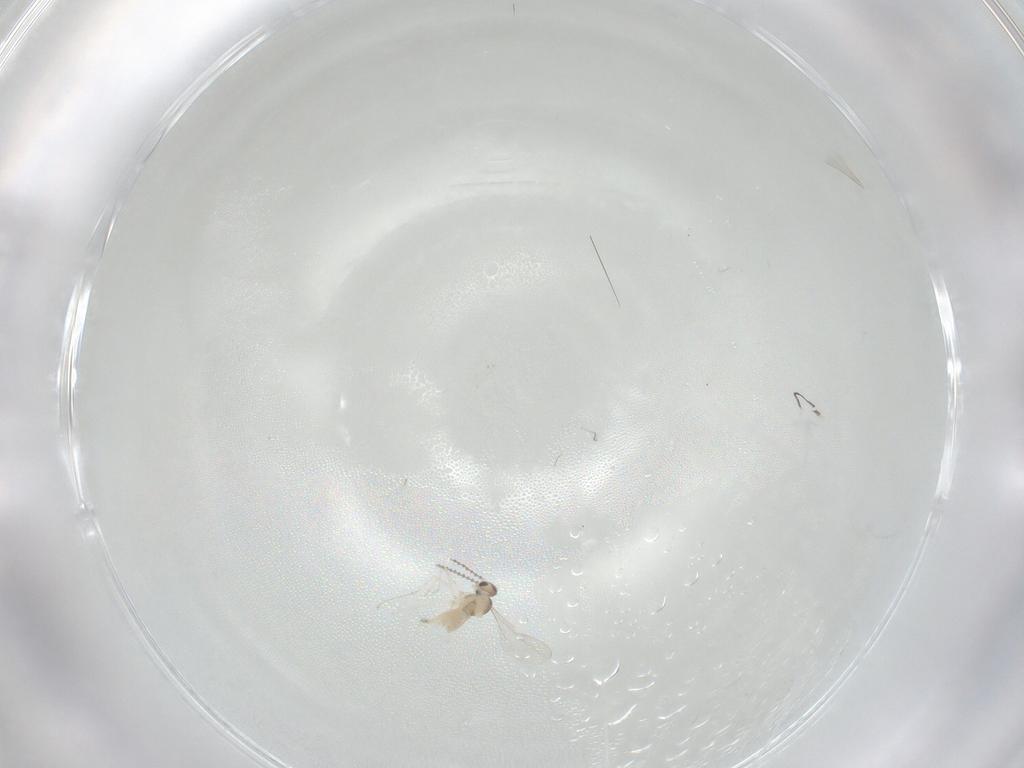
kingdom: Animalia
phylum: Arthropoda
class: Insecta
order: Diptera
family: Cecidomyiidae
